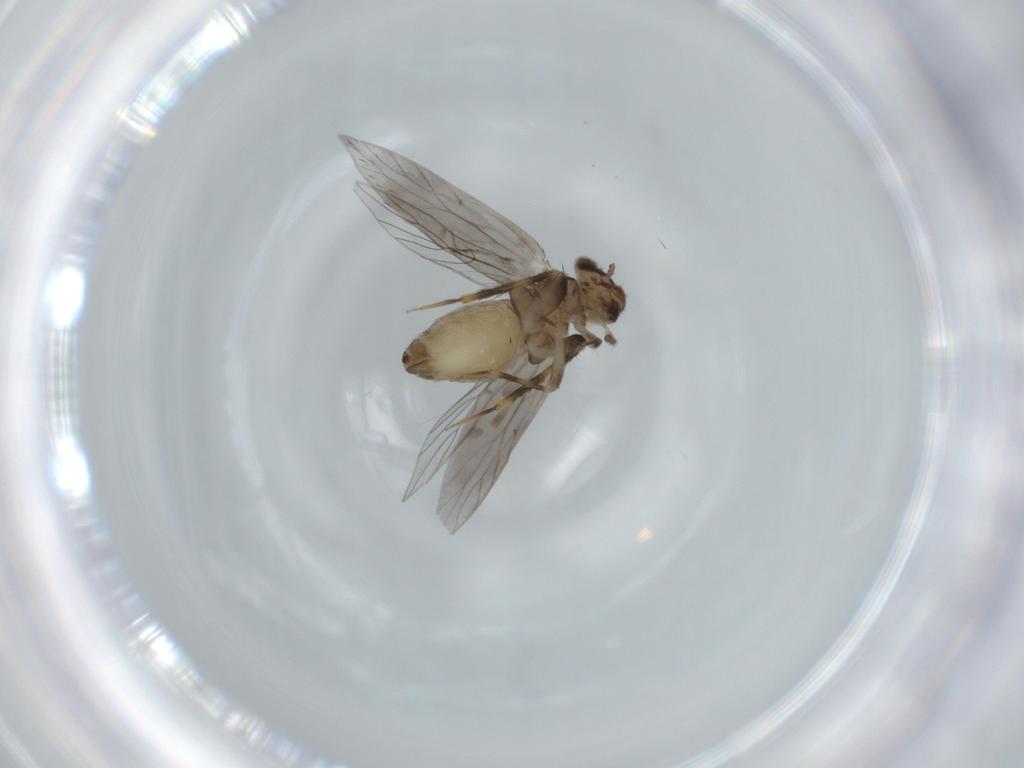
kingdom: Animalia
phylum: Arthropoda
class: Insecta
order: Psocodea
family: Lepidopsocidae
